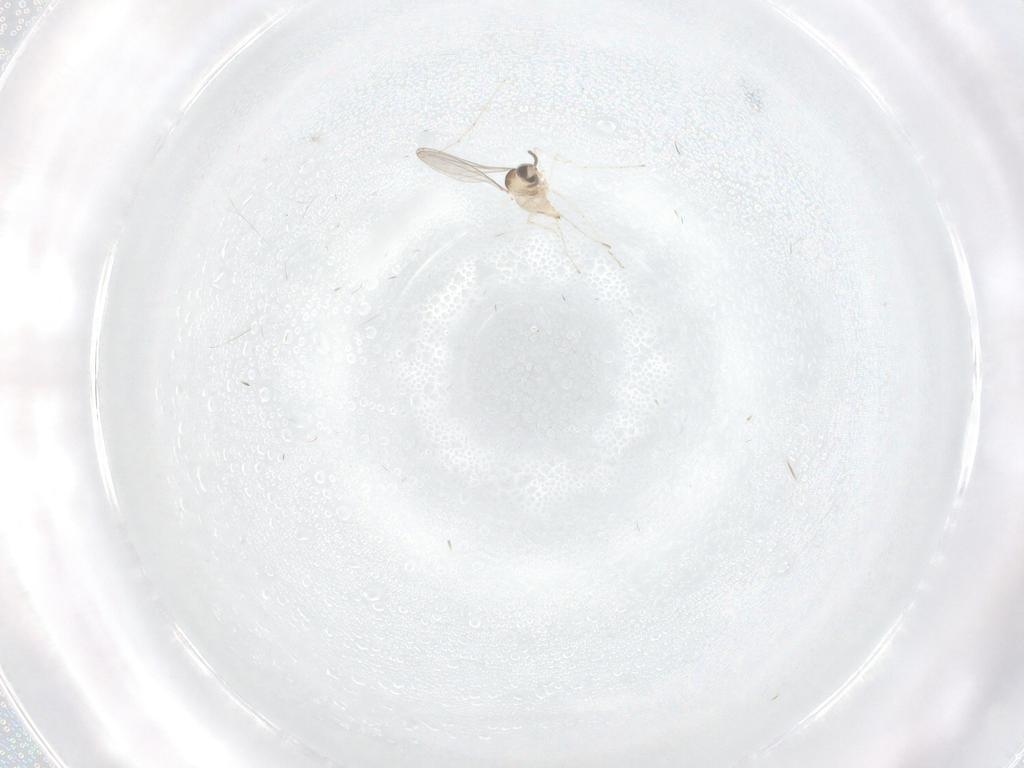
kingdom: Animalia
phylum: Arthropoda
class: Insecta
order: Diptera
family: Cecidomyiidae
